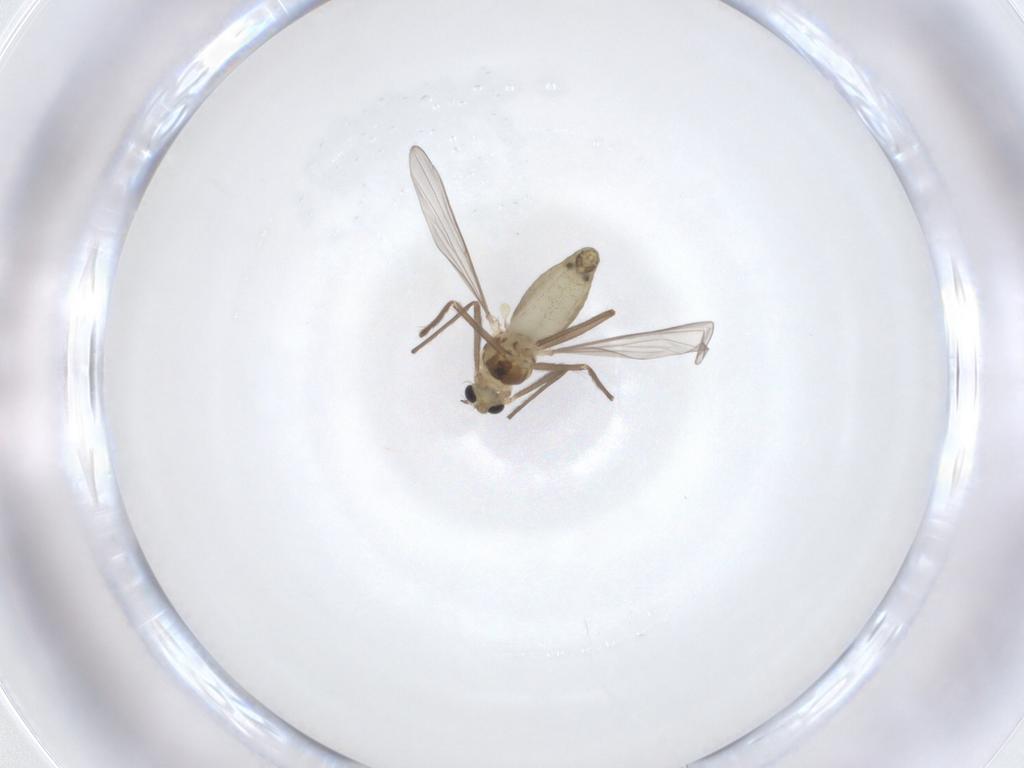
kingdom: Animalia
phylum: Arthropoda
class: Insecta
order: Diptera
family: Chironomidae
